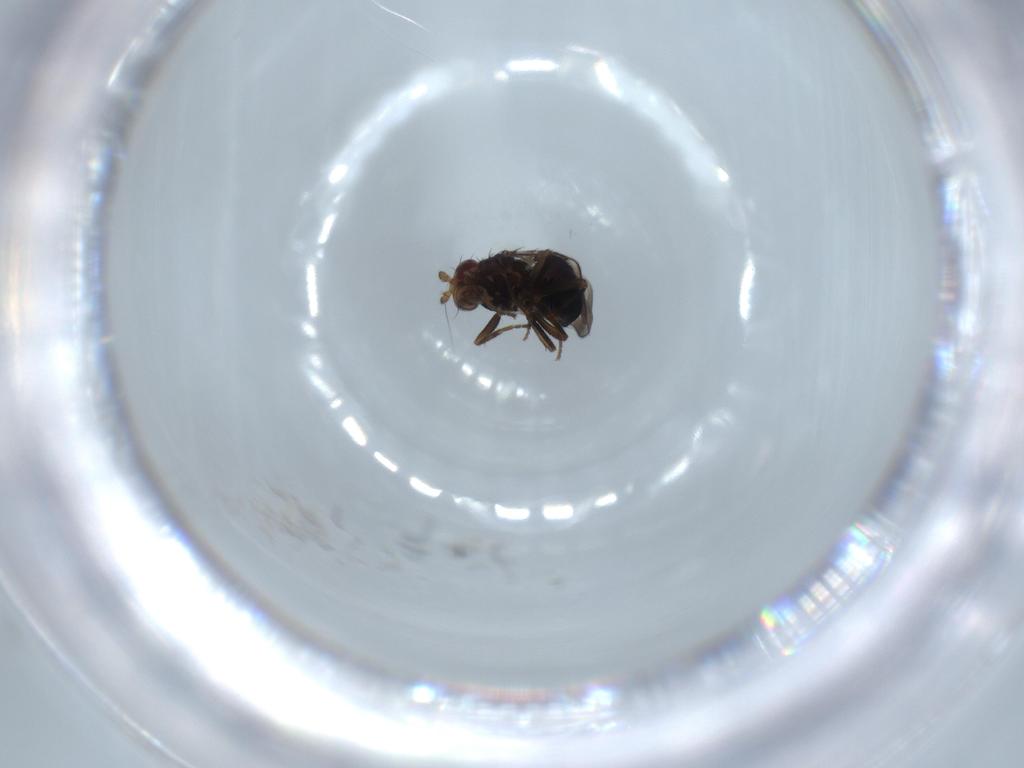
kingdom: Animalia
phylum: Arthropoda
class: Insecta
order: Diptera
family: Sphaeroceridae
